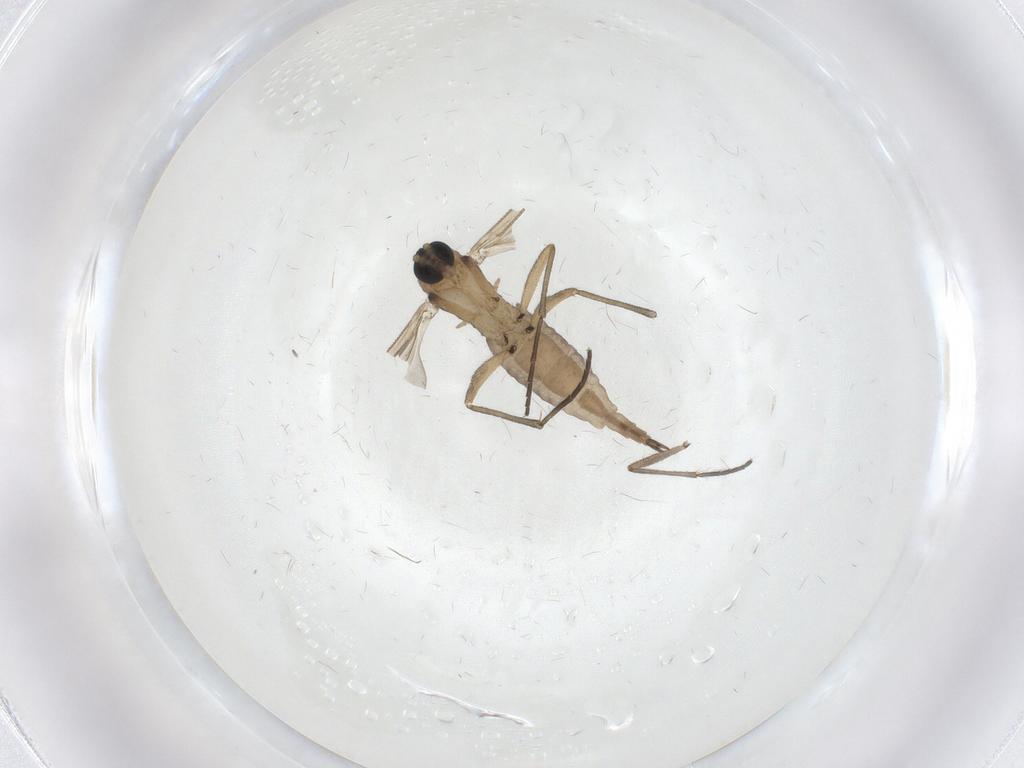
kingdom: Animalia
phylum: Arthropoda
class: Insecta
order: Diptera
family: Sciaridae
